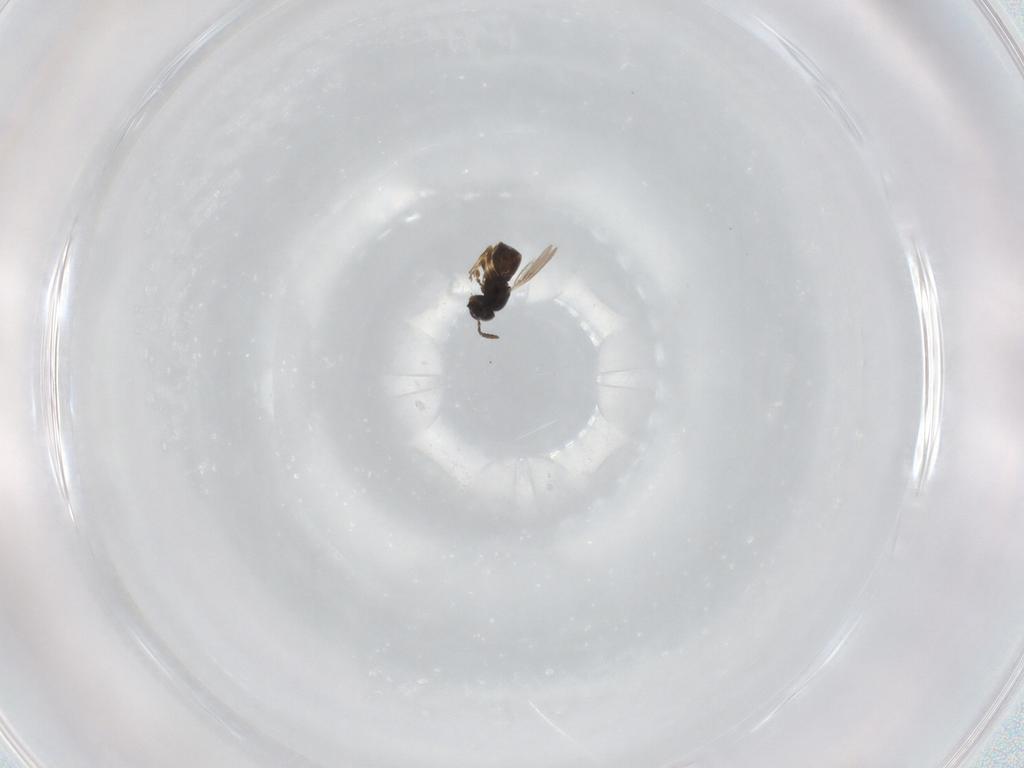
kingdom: Animalia
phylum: Arthropoda
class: Insecta
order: Hymenoptera
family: Scelionidae
